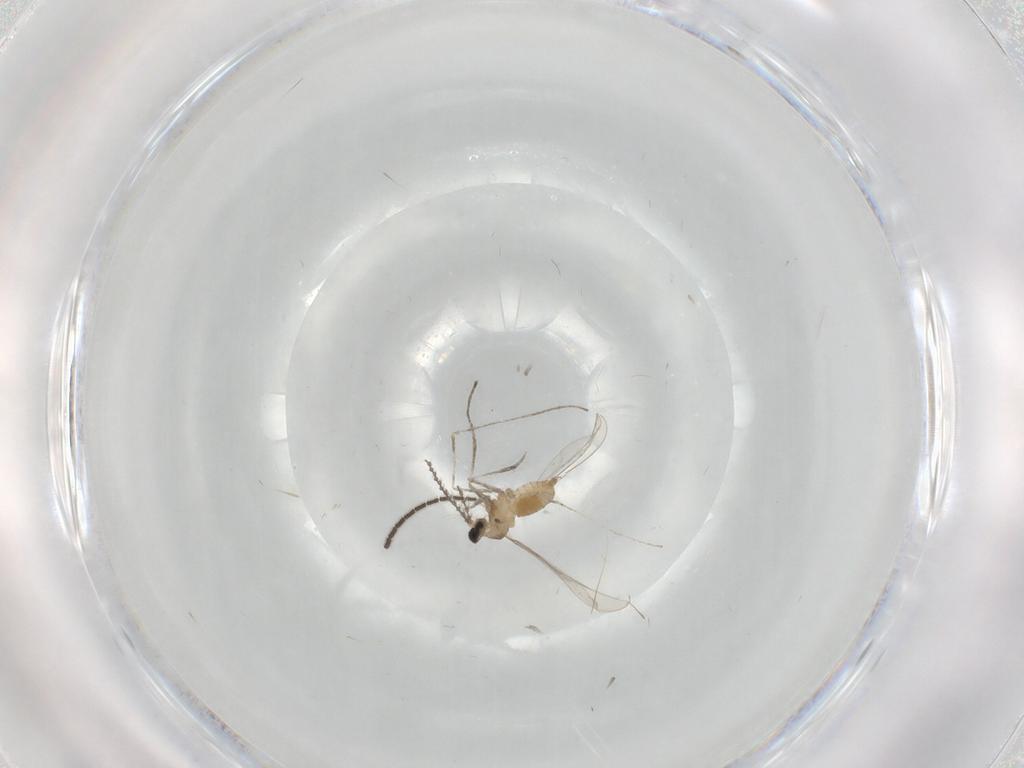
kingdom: Animalia
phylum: Arthropoda
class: Insecta
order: Diptera
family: Cecidomyiidae
